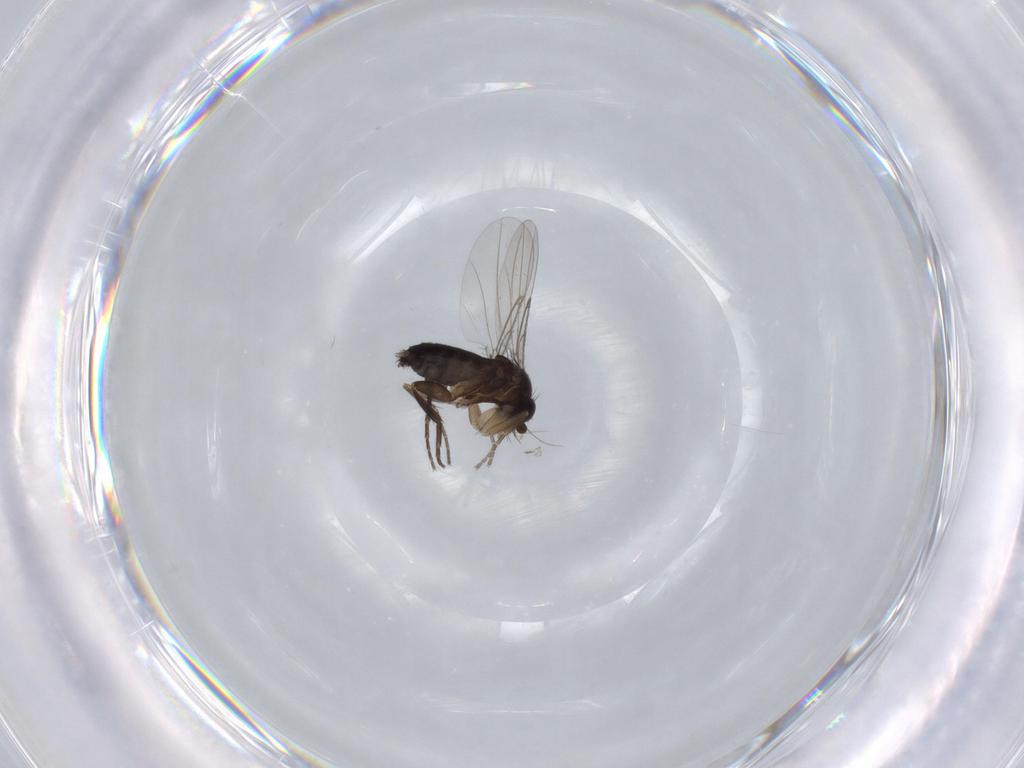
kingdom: Animalia
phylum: Arthropoda
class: Insecta
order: Diptera
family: Phoridae
